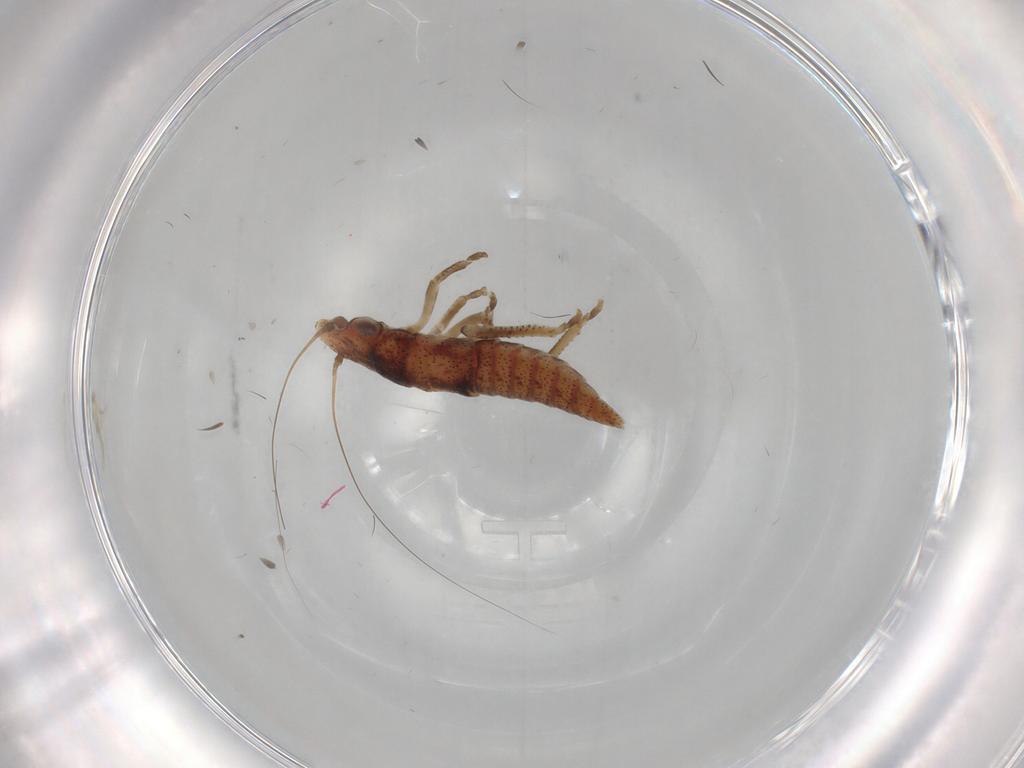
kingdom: Animalia
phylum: Arthropoda
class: Insecta
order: Hemiptera
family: Cicadellidae
